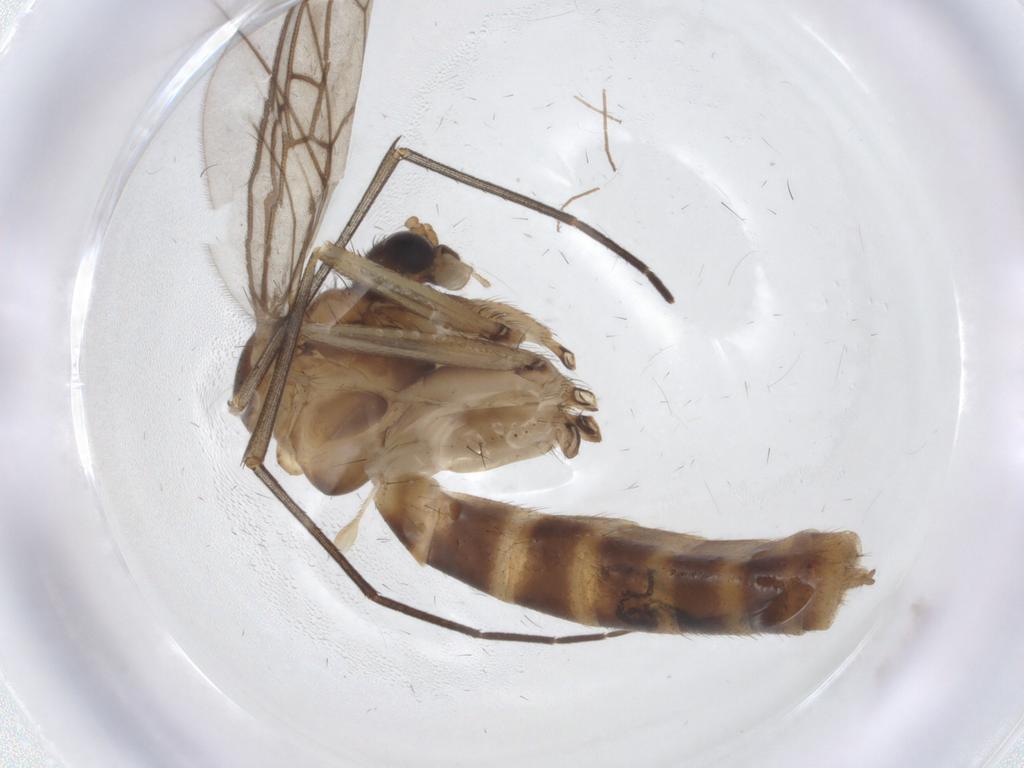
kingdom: Animalia
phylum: Arthropoda
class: Insecta
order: Diptera
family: Mycetophilidae
